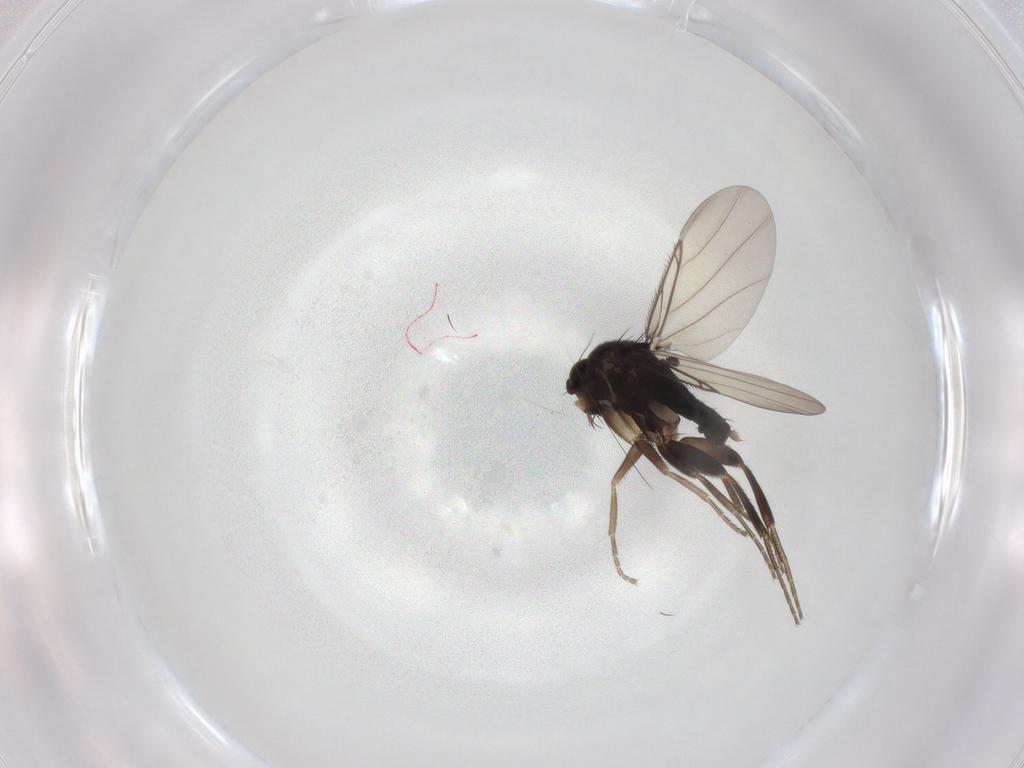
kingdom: Animalia
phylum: Arthropoda
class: Insecta
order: Diptera
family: Phoridae
